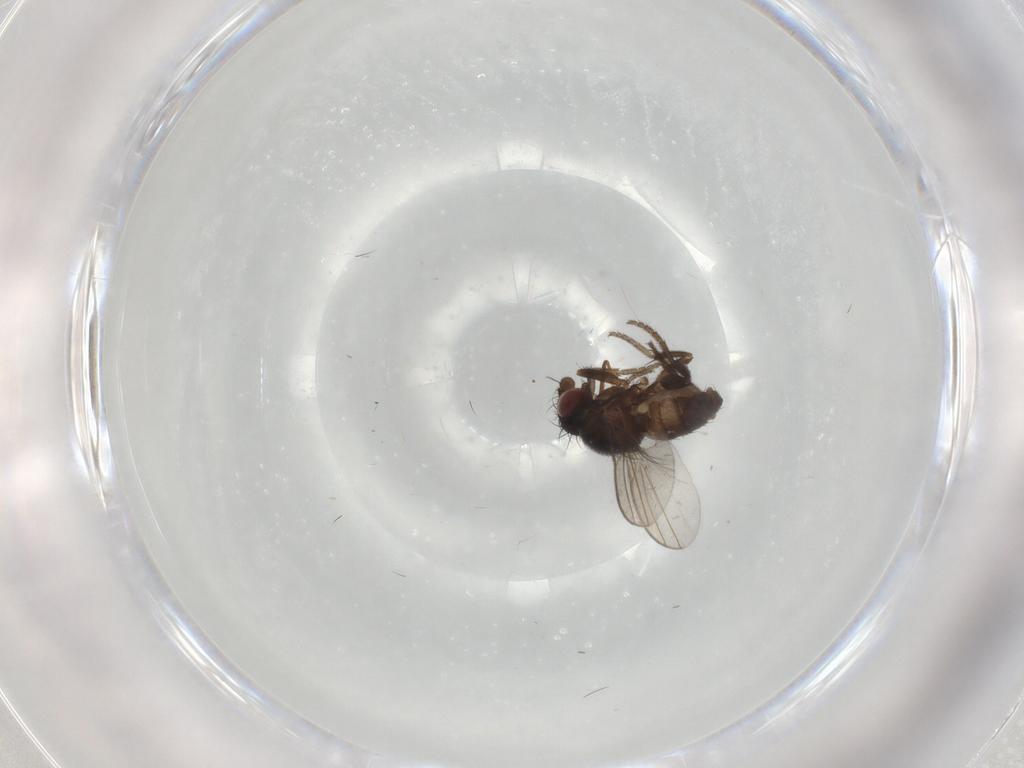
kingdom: Animalia
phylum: Arthropoda
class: Insecta
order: Diptera
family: Milichiidae
